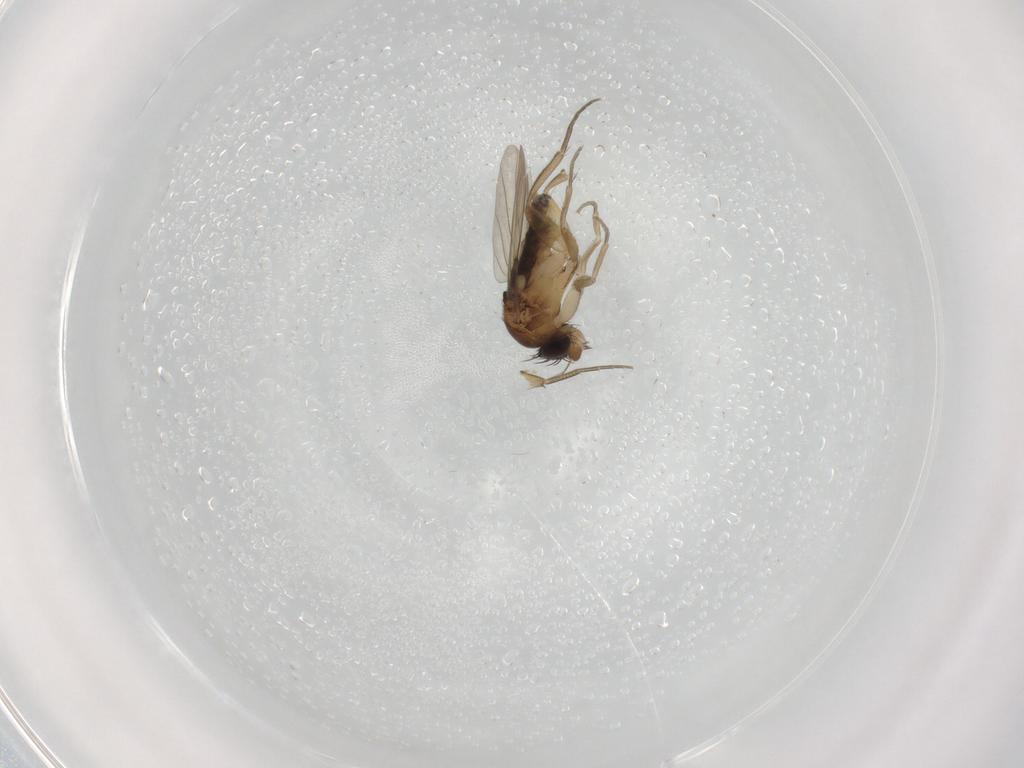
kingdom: Animalia
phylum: Arthropoda
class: Insecta
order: Diptera
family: Phoridae
